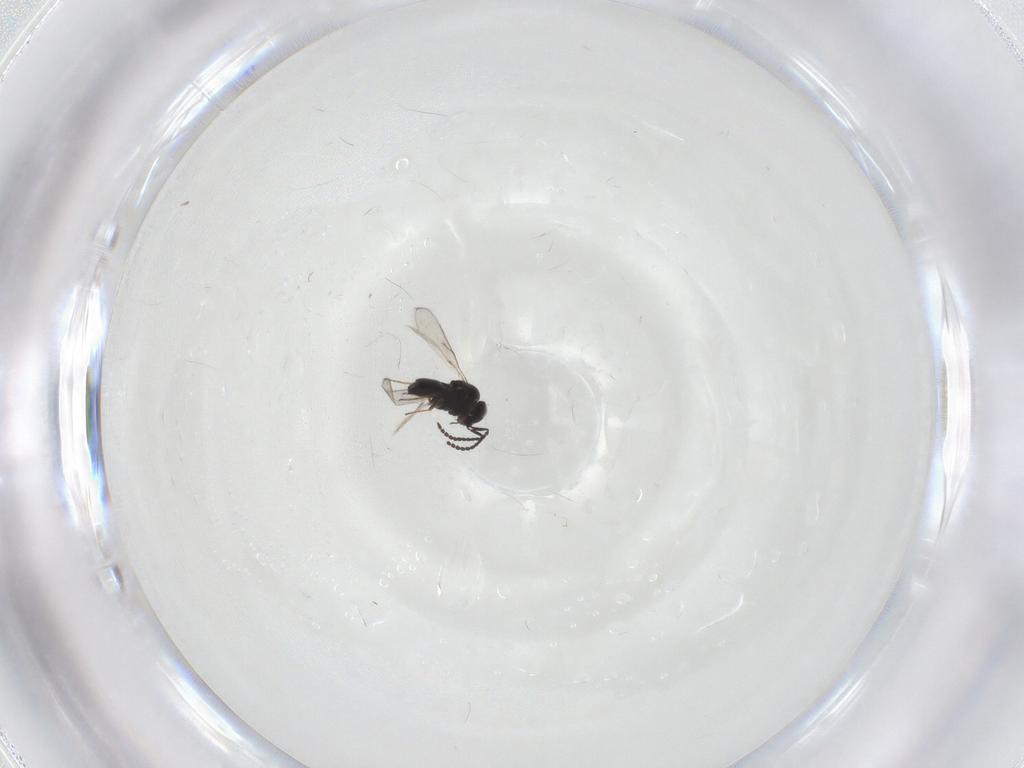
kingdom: Animalia
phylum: Arthropoda
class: Insecta
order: Hymenoptera
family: Scelionidae
